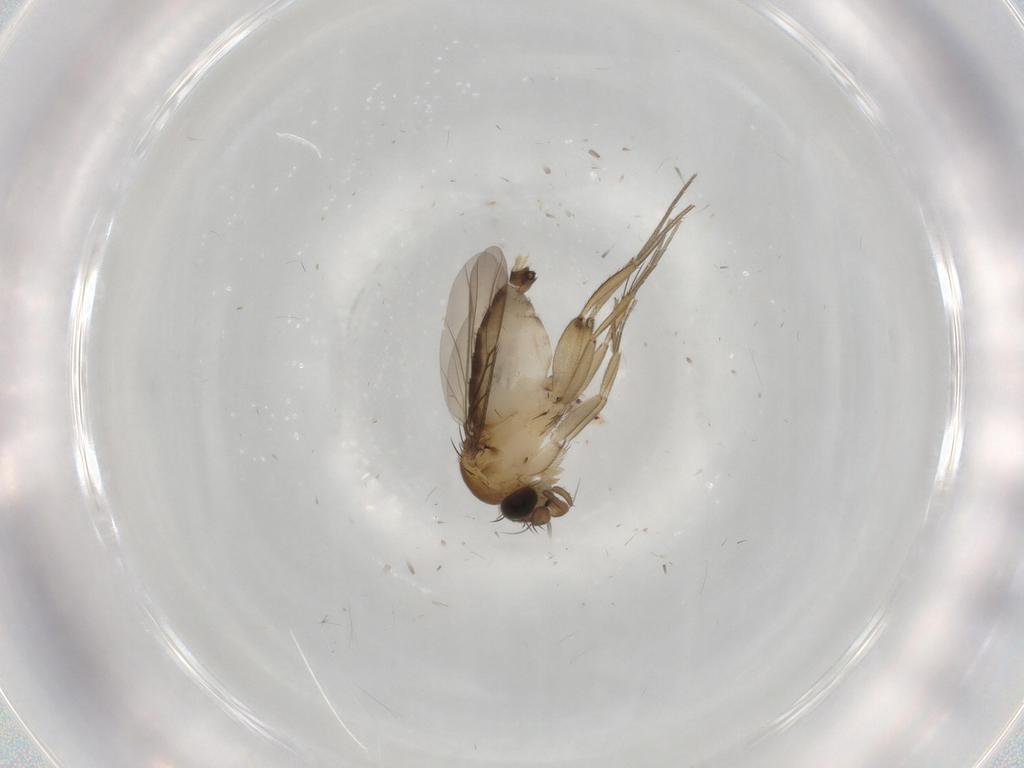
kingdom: Animalia
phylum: Arthropoda
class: Insecta
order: Diptera
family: Phoridae
